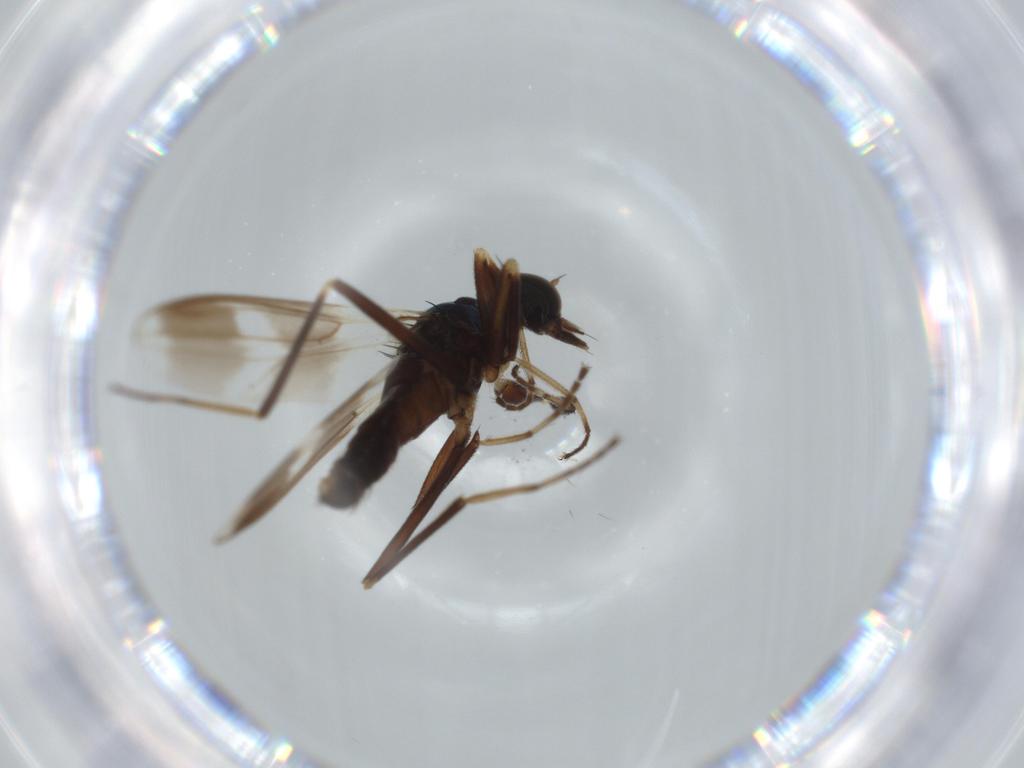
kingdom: Animalia
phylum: Arthropoda
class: Insecta
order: Diptera
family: Hybotidae
